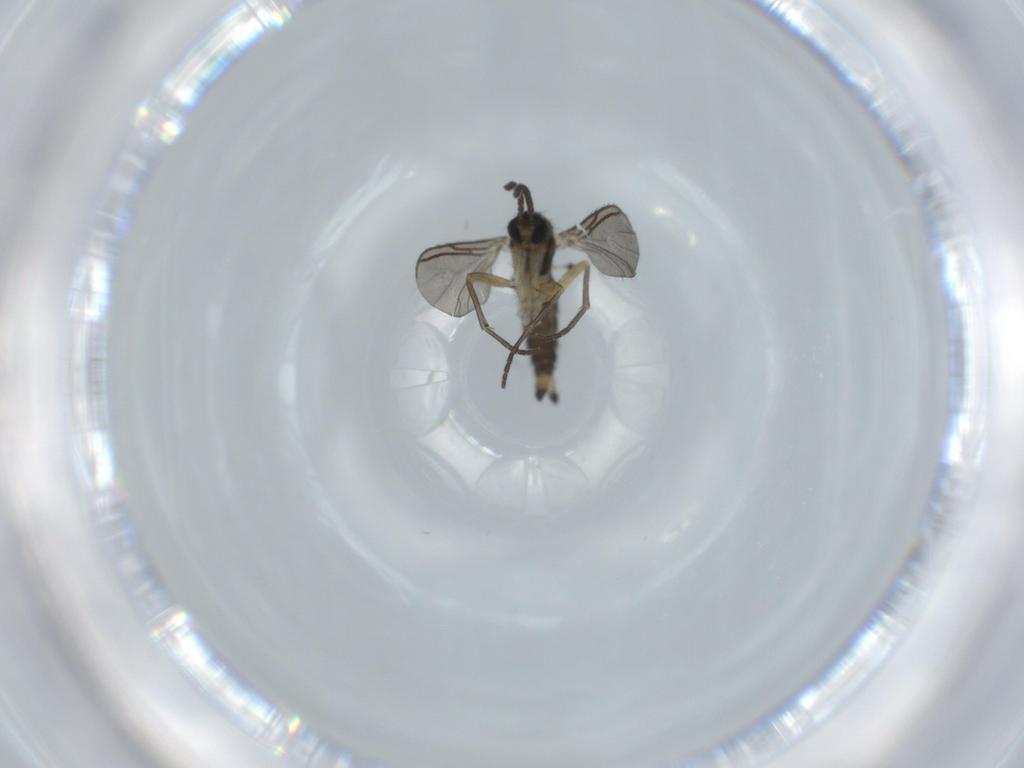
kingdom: Animalia
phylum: Arthropoda
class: Insecta
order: Diptera
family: Sciaridae
